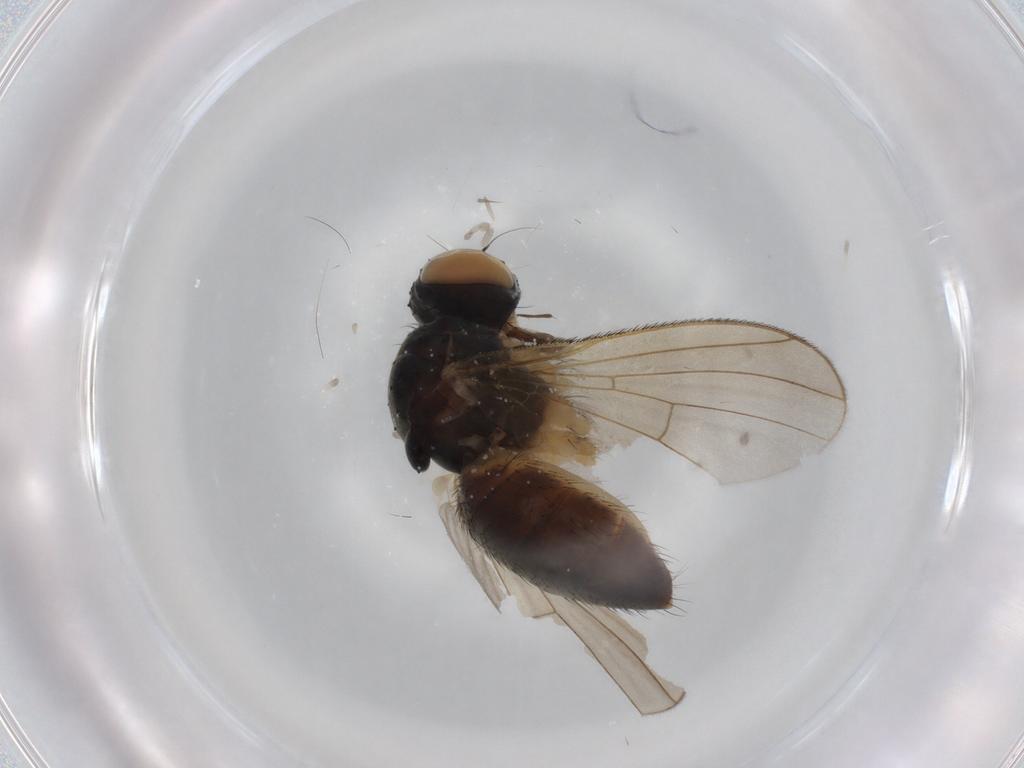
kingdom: Animalia
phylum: Arthropoda
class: Insecta
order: Diptera
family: Muscidae
